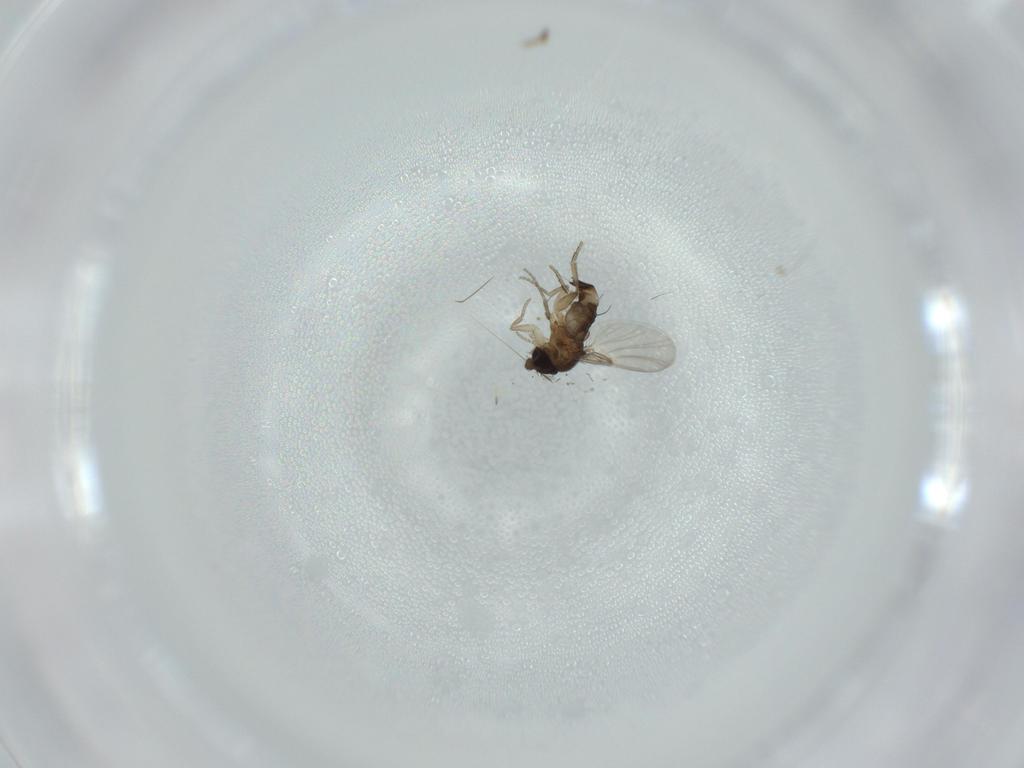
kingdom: Animalia
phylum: Arthropoda
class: Insecta
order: Diptera
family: Phoridae
